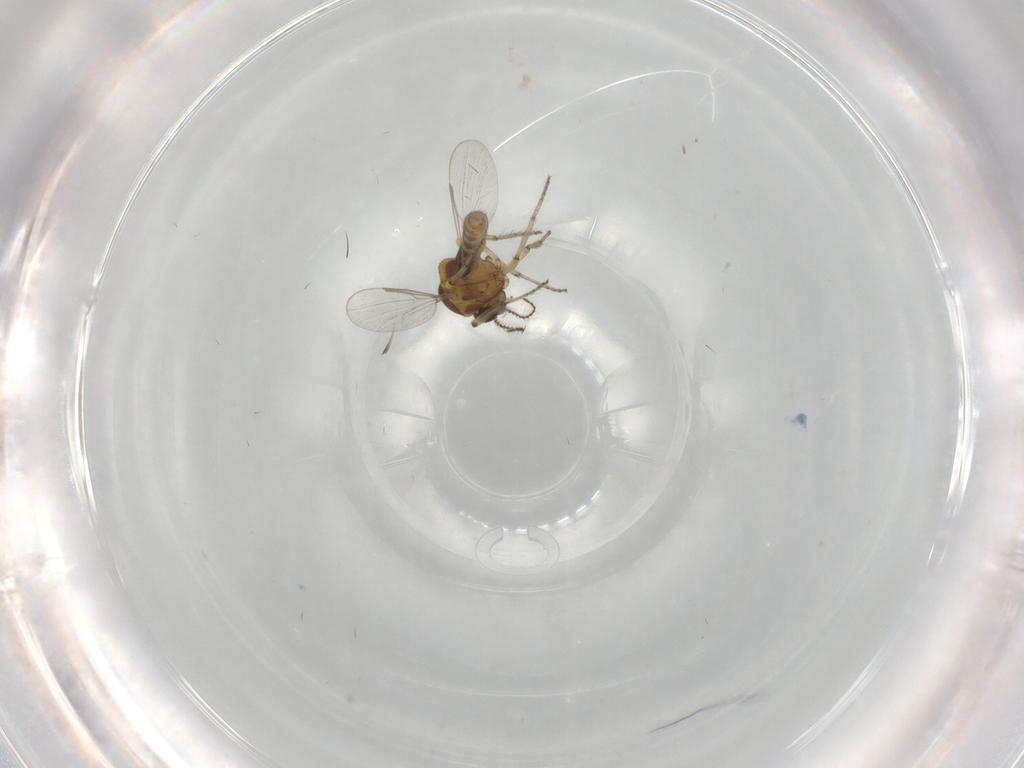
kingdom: Animalia
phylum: Arthropoda
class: Insecta
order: Diptera
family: Ceratopogonidae
